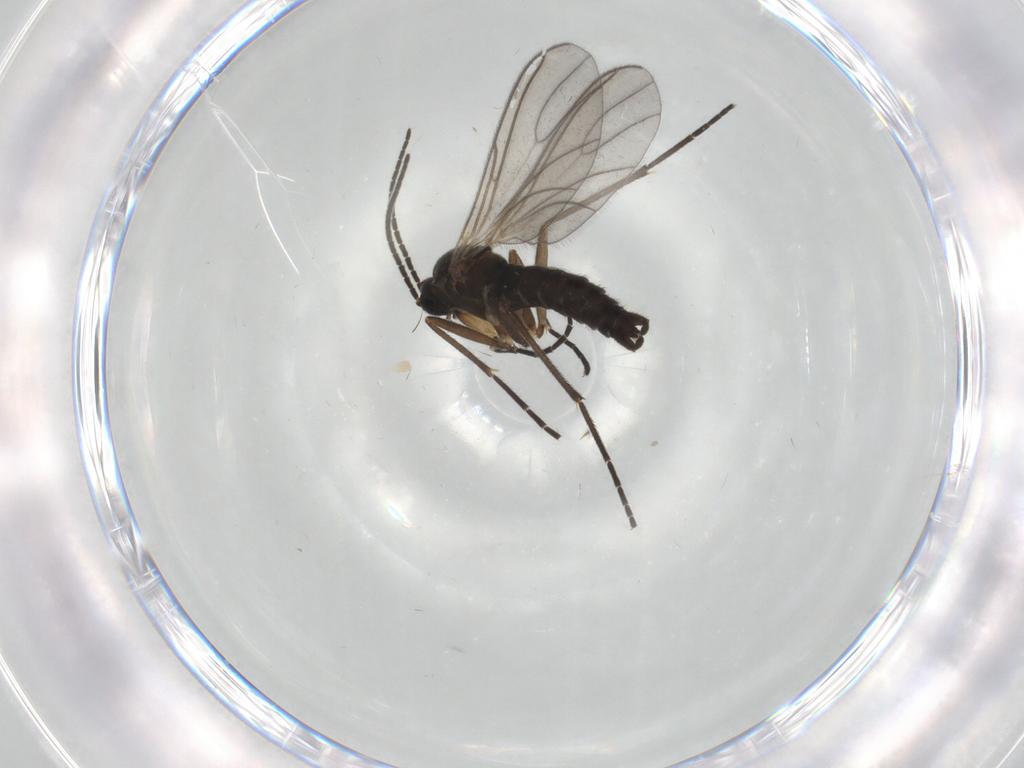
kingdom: Animalia
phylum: Arthropoda
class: Insecta
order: Diptera
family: Sciaridae
